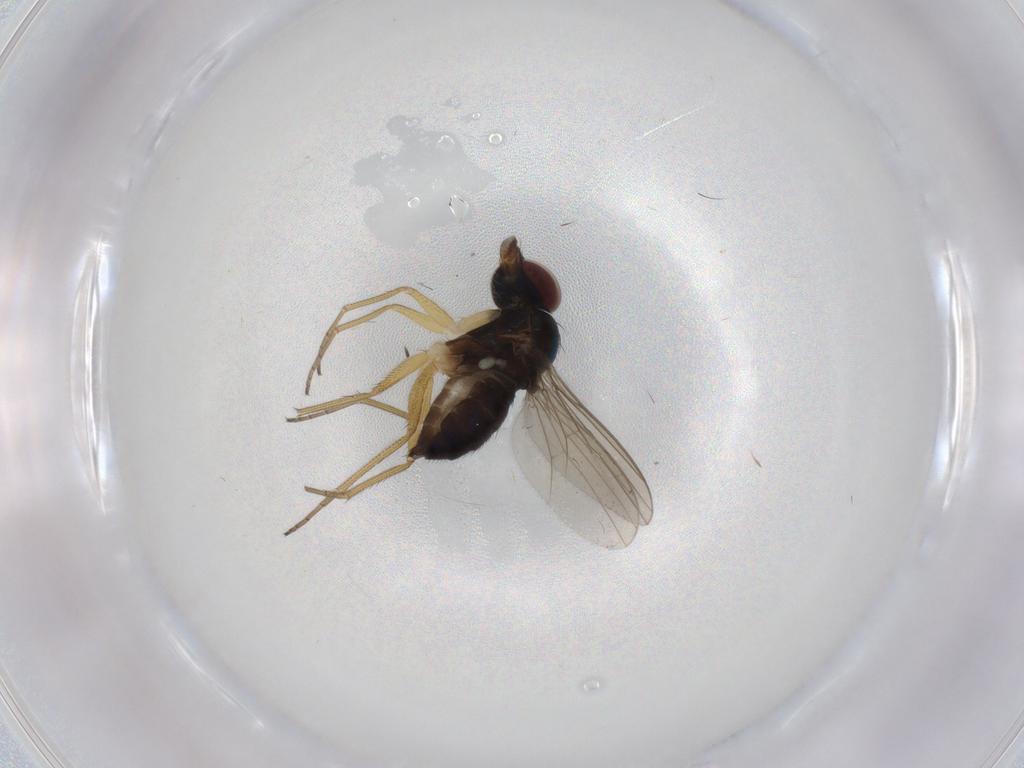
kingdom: Animalia
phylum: Arthropoda
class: Insecta
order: Diptera
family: Dolichopodidae
